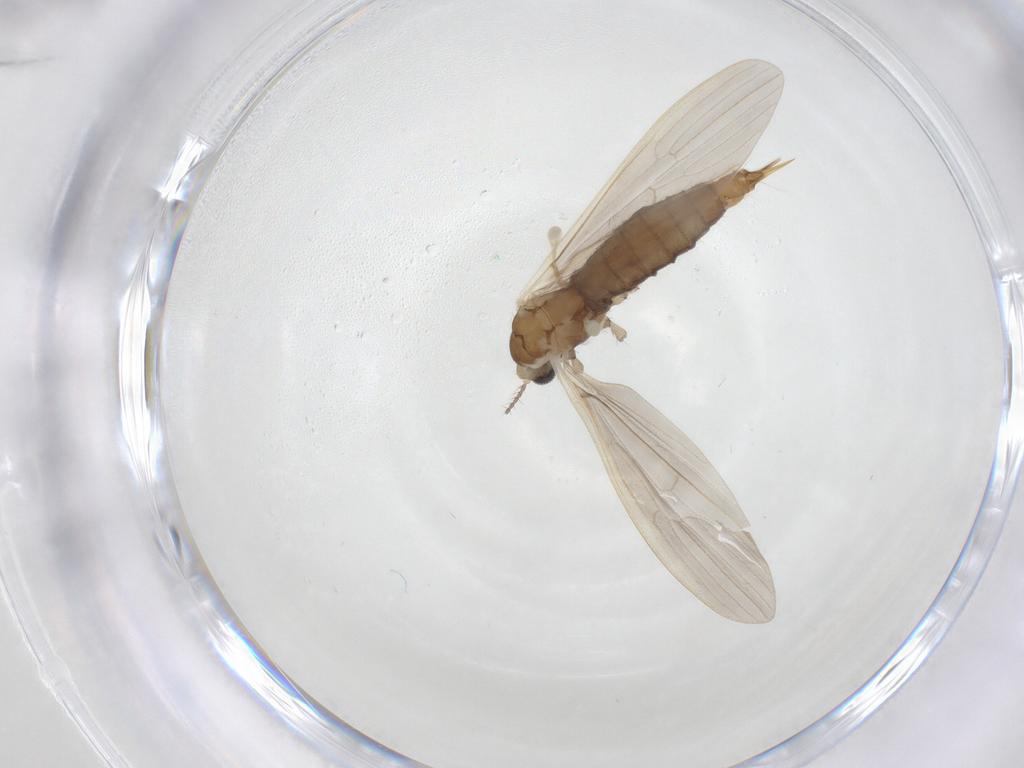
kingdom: Animalia
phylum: Arthropoda
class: Insecta
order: Diptera
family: Limoniidae
